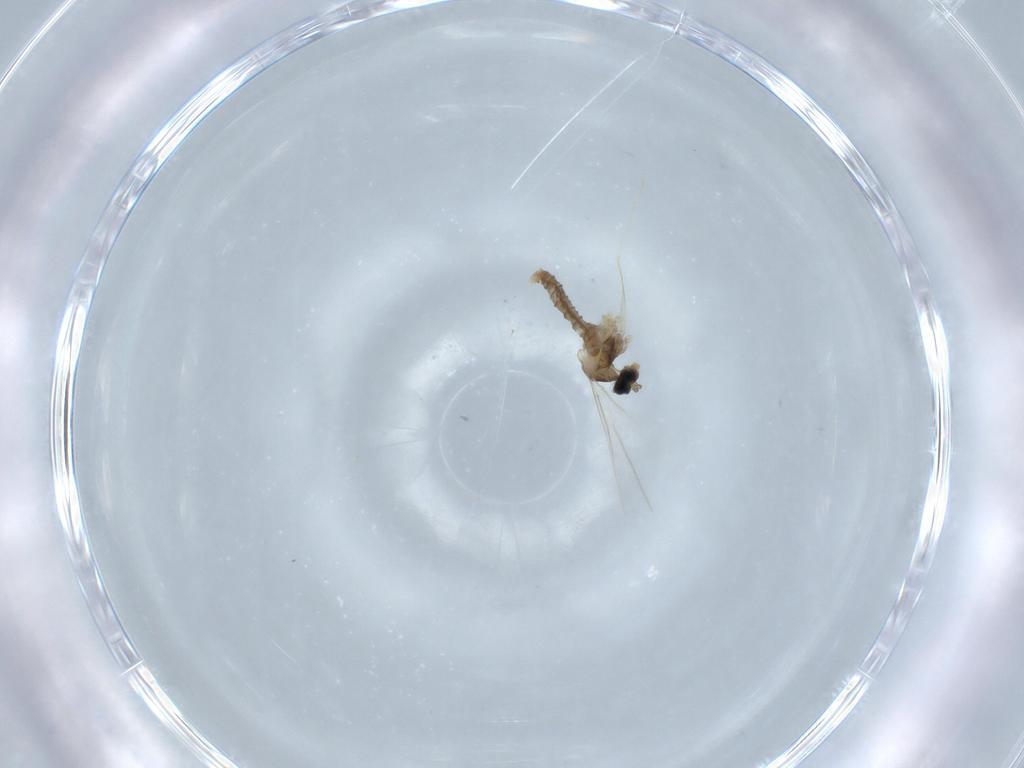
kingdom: Animalia
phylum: Arthropoda
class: Insecta
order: Diptera
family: Cecidomyiidae
